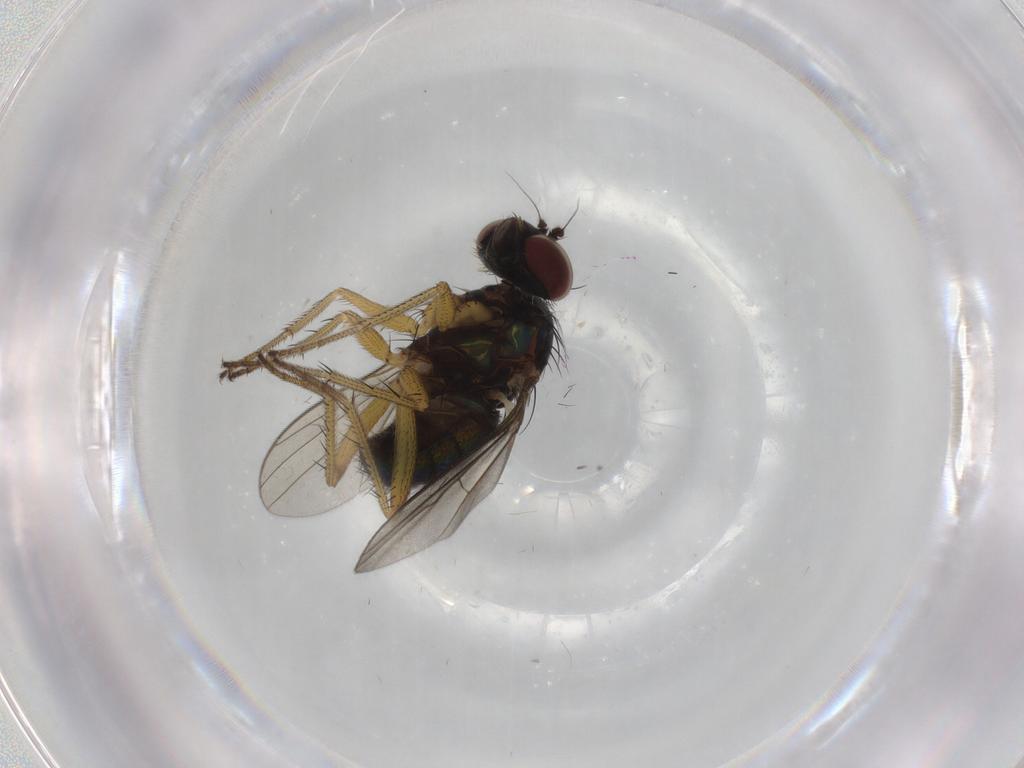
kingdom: Animalia
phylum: Arthropoda
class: Insecta
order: Diptera
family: Dolichopodidae
